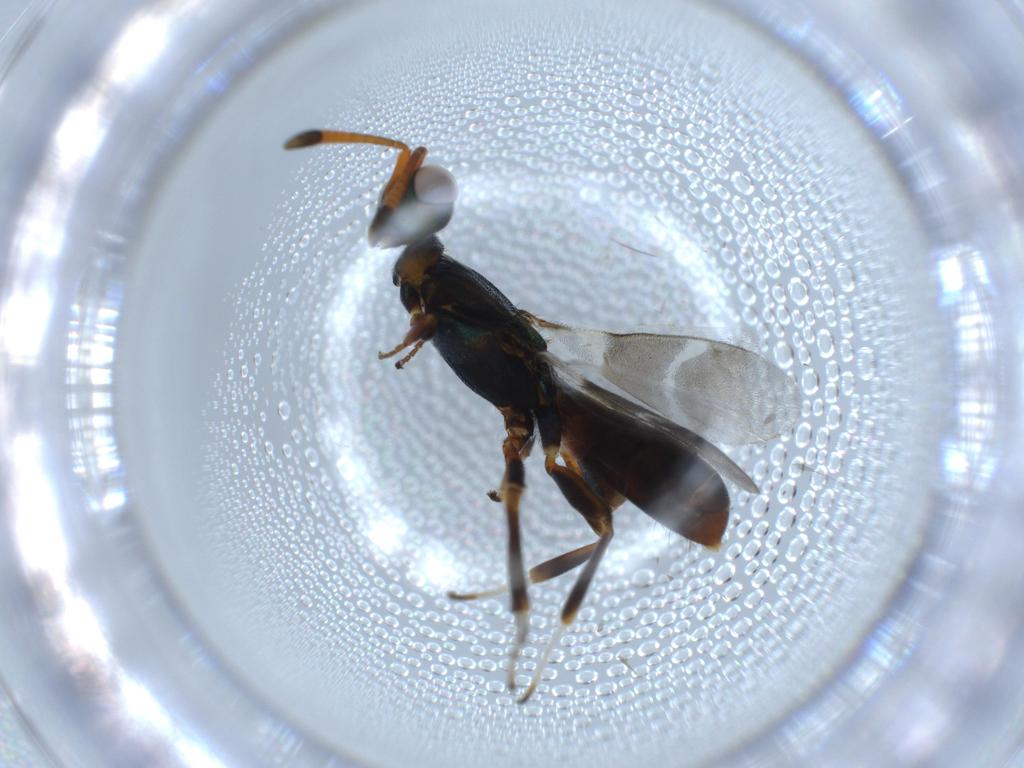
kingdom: Animalia
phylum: Arthropoda
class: Insecta
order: Hymenoptera
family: Eupelmidae
